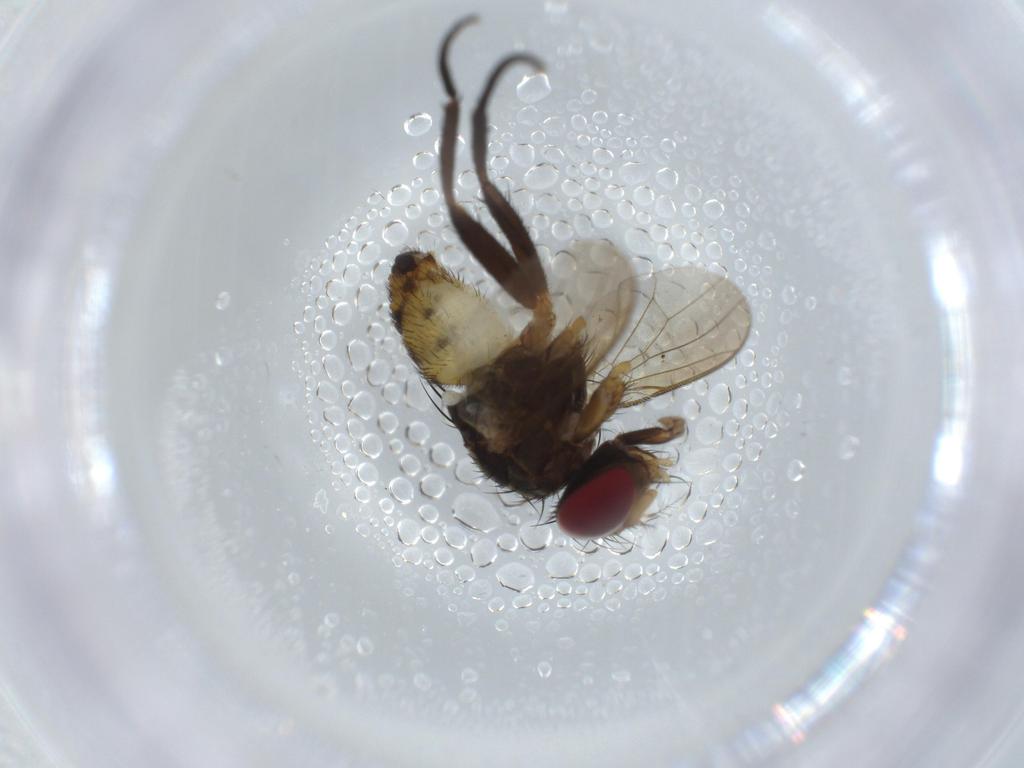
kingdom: Animalia
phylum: Arthropoda
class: Insecta
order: Diptera
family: Anthomyiidae
